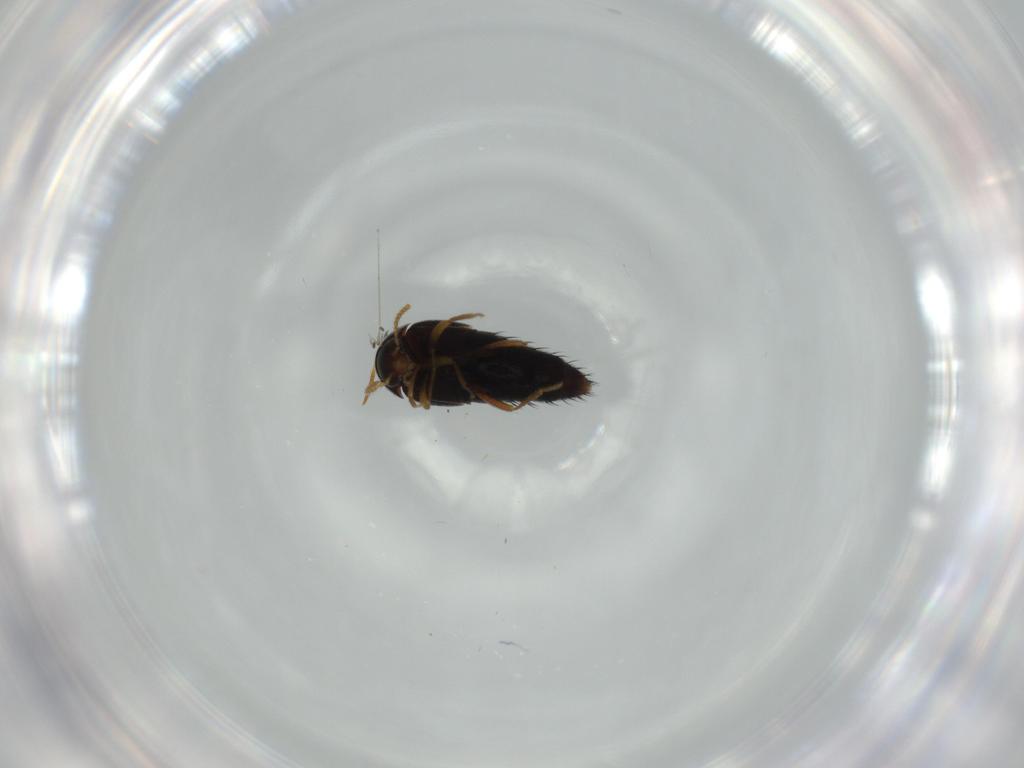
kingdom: Animalia
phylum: Arthropoda
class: Insecta
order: Coleoptera
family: Staphylinidae
